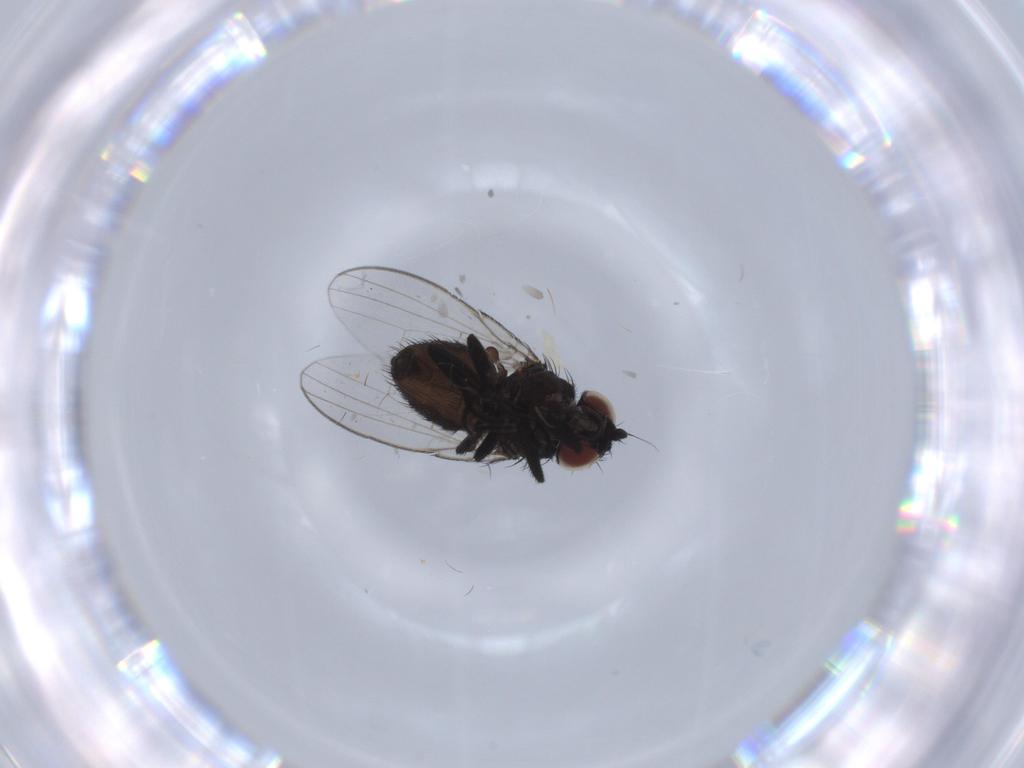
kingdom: Animalia
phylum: Arthropoda
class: Insecta
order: Diptera
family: Milichiidae
